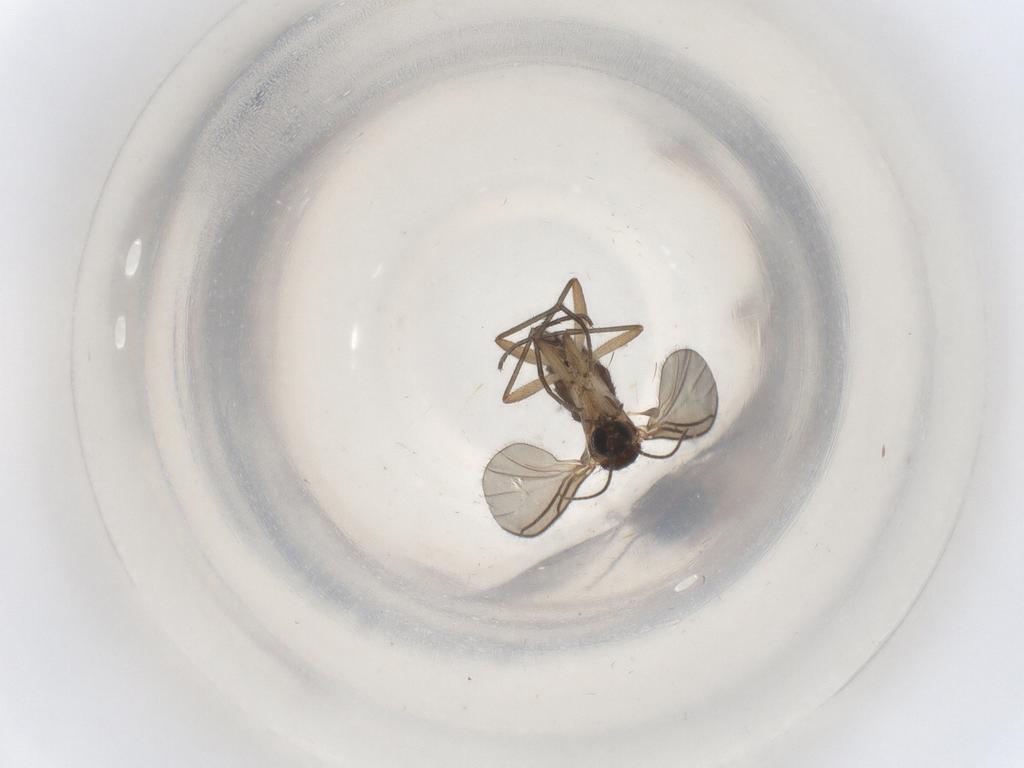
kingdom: Animalia
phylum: Arthropoda
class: Insecta
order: Diptera
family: Sciaridae
